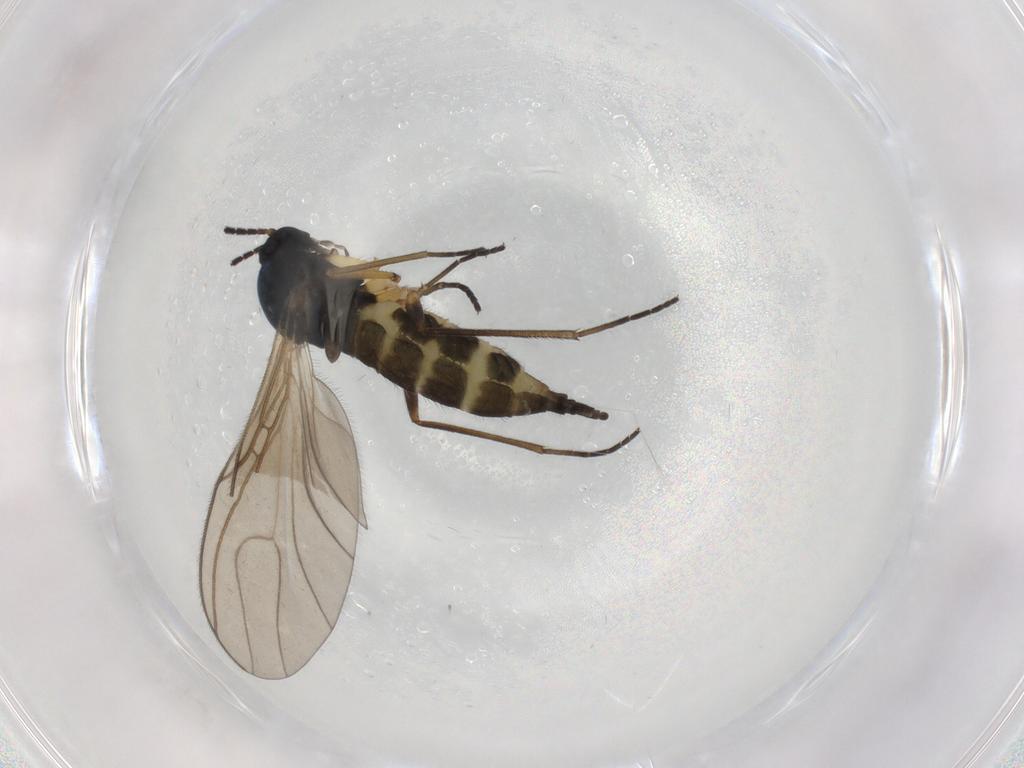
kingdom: Animalia
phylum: Arthropoda
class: Insecta
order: Diptera
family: Sciaridae
